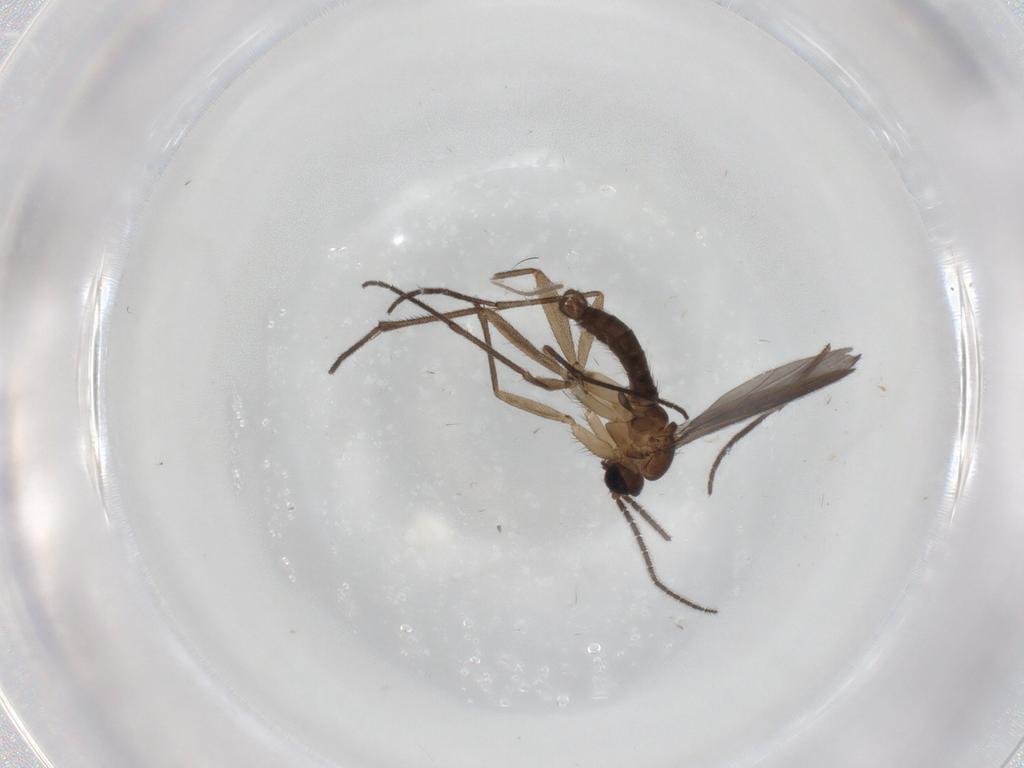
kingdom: Animalia
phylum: Arthropoda
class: Insecta
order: Diptera
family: Sciaridae
